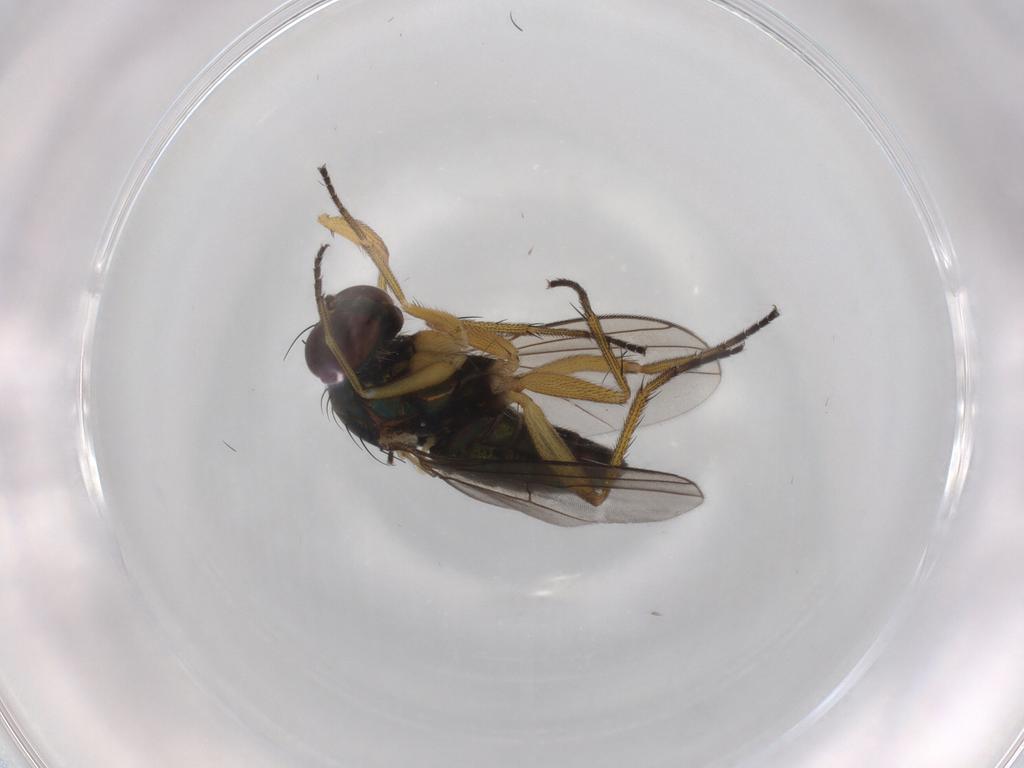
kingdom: Animalia
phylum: Arthropoda
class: Insecta
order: Diptera
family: Dolichopodidae
